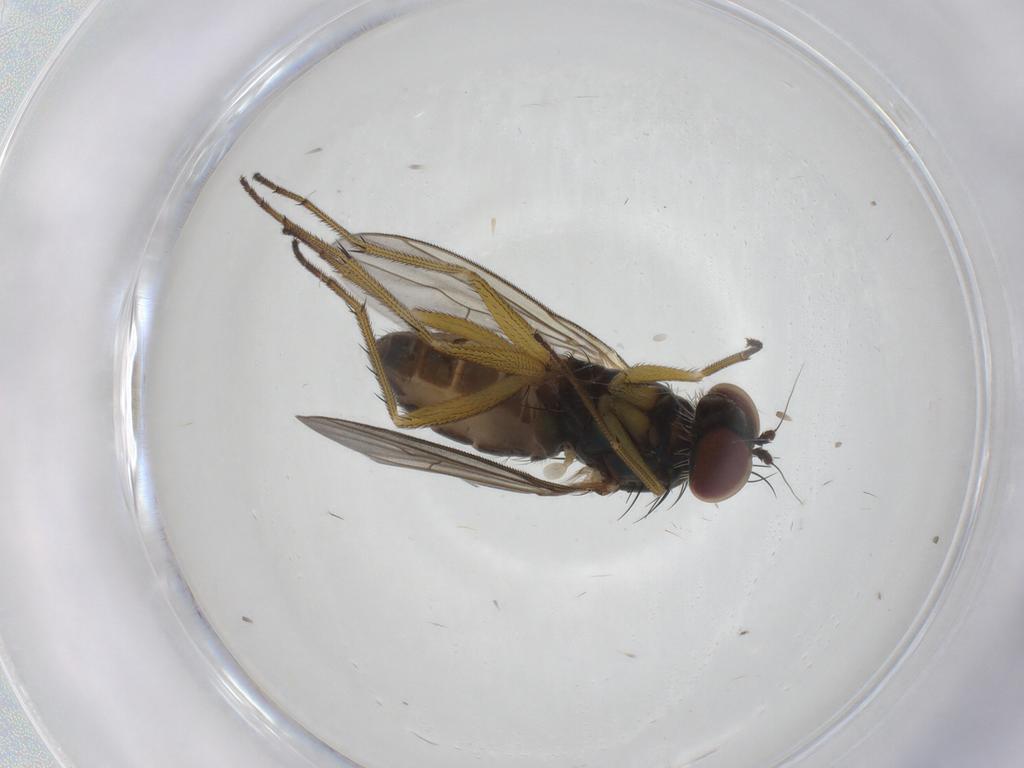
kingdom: Animalia
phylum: Arthropoda
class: Insecta
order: Diptera
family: Dolichopodidae
